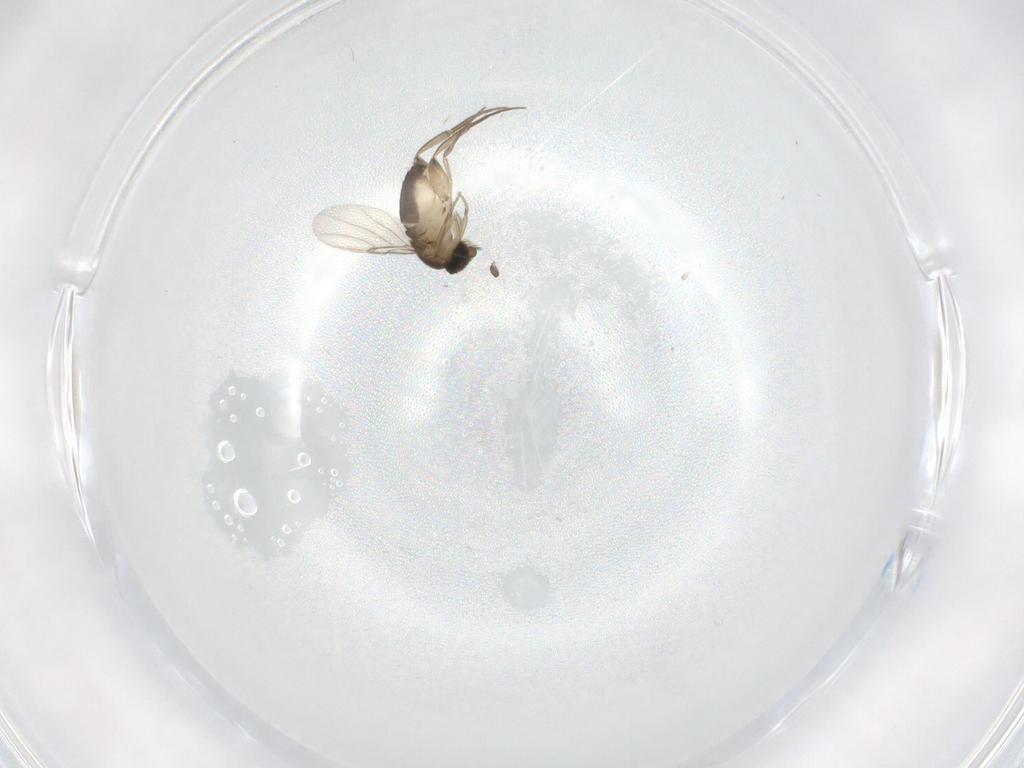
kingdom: Animalia
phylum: Arthropoda
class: Insecta
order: Diptera
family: Phoridae
